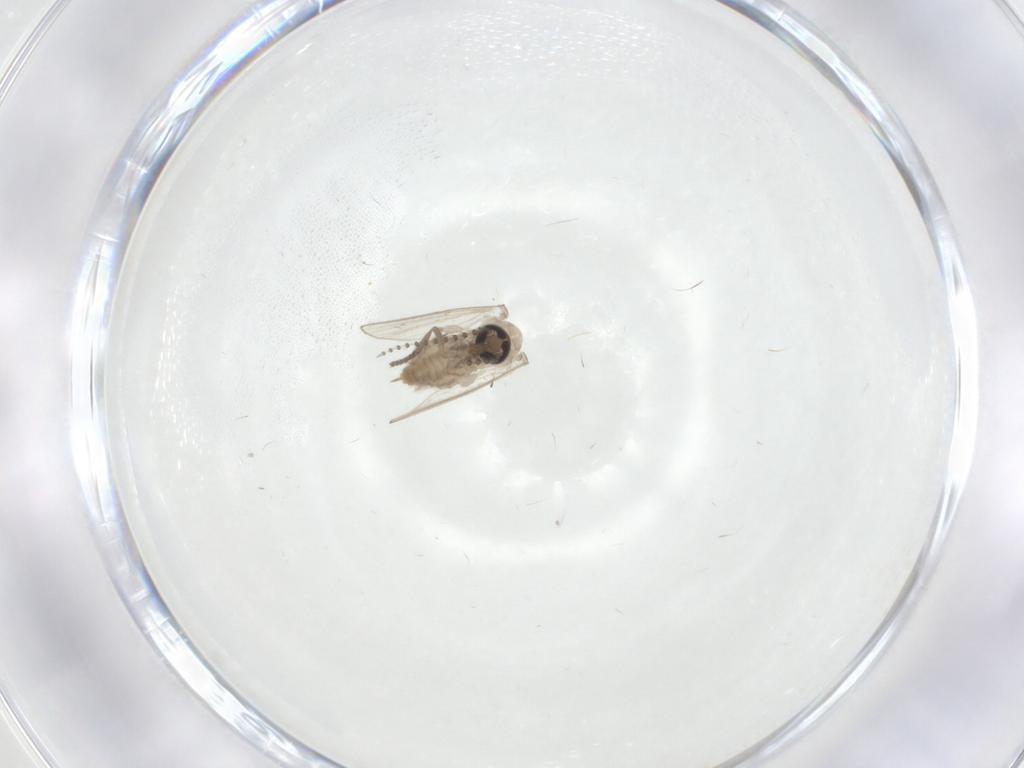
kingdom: Animalia
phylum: Arthropoda
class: Insecta
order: Diptera
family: Psychodidae
